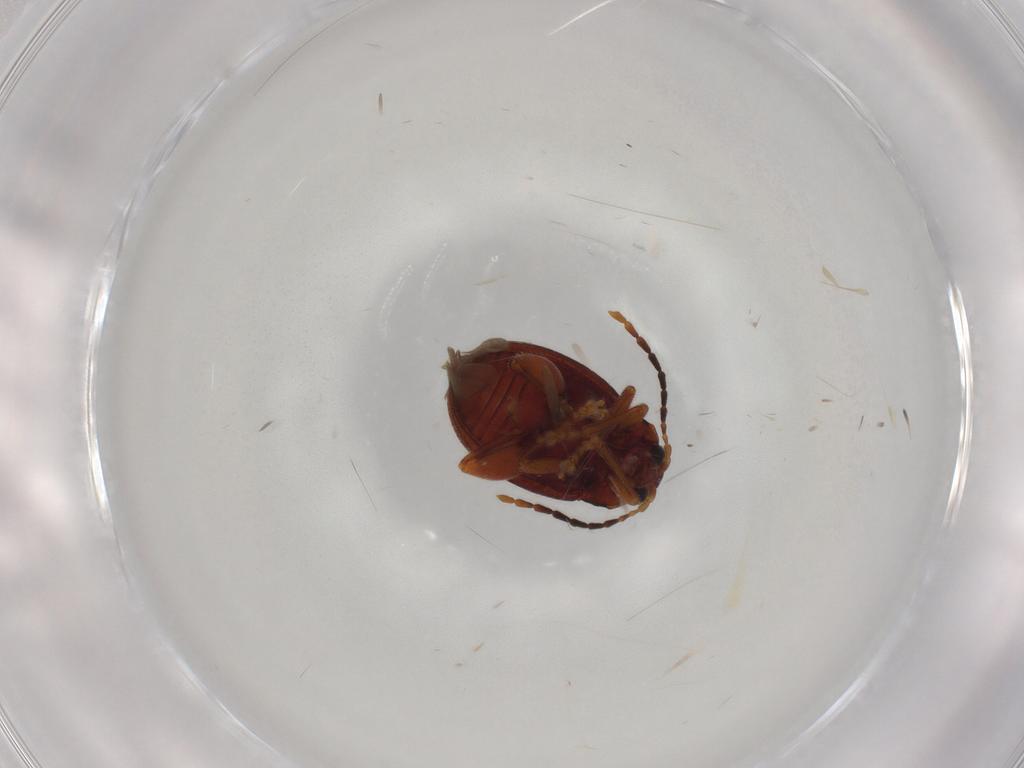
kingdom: Animalia
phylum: Arthropoda
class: Insecta
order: Coleoptera
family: Chrysomelidae
